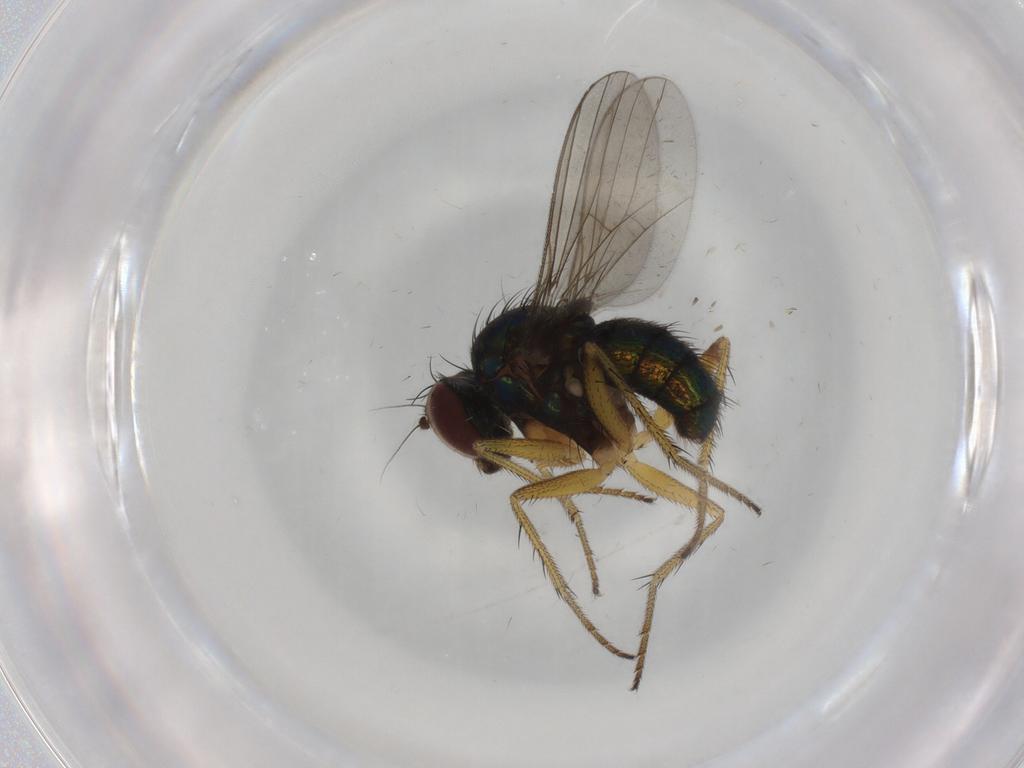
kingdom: Animalia
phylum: Arthropoda
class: Insecta
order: Diptera
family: Dolichopodidae
